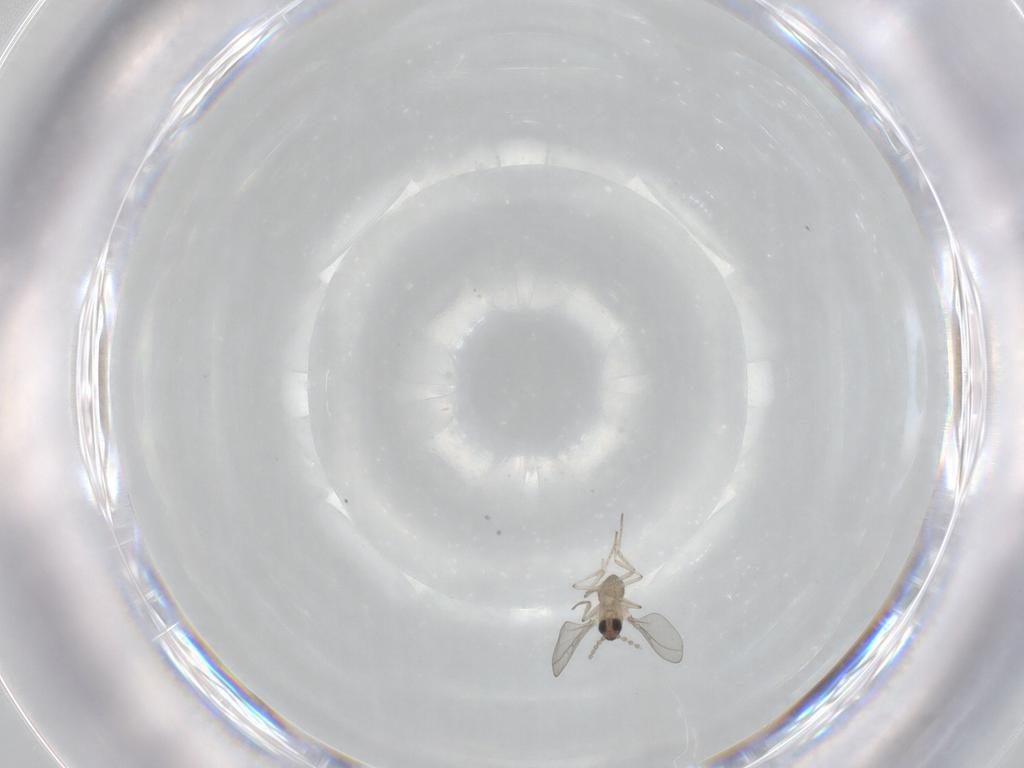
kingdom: Animalia
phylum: Arthropoda
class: Insecta
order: Diptera
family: Cecidomyiidae
